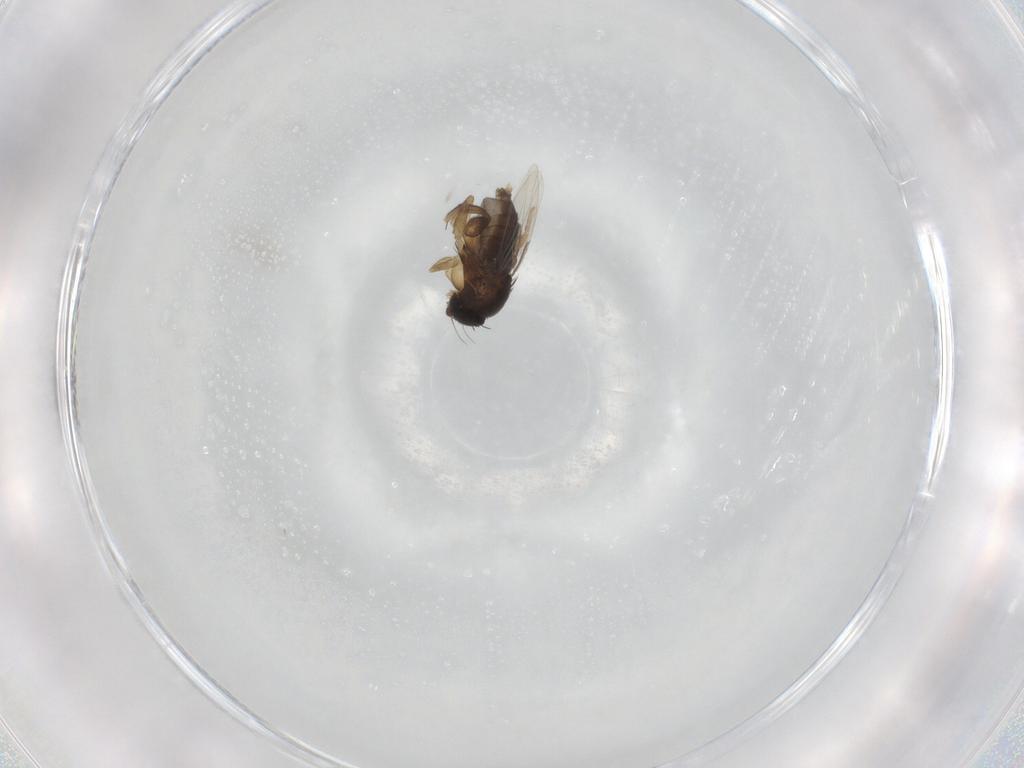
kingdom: Animalia
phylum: Arthropoda
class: Insecta
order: Diptera
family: Phoridae
